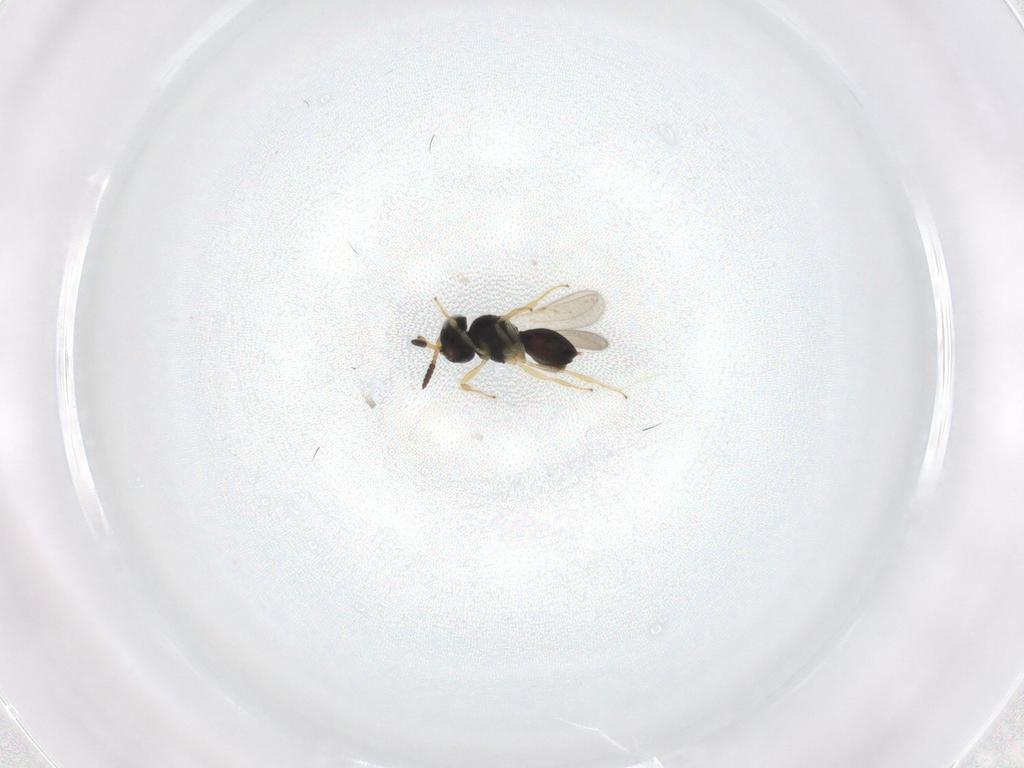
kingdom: Animalia
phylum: Arthropoda
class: Insecta
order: Hymenoptera
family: Scelionidae
